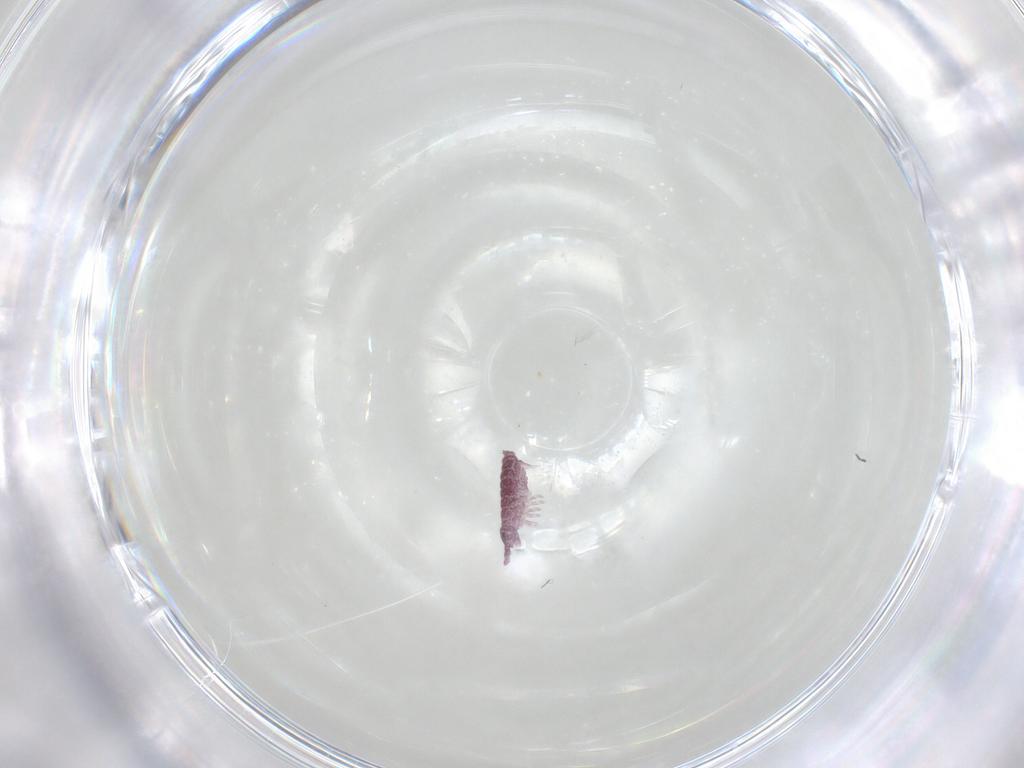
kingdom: Animalia
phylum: Arthropoda
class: Collembola
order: Poduromorpha
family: Hypogastruridae
